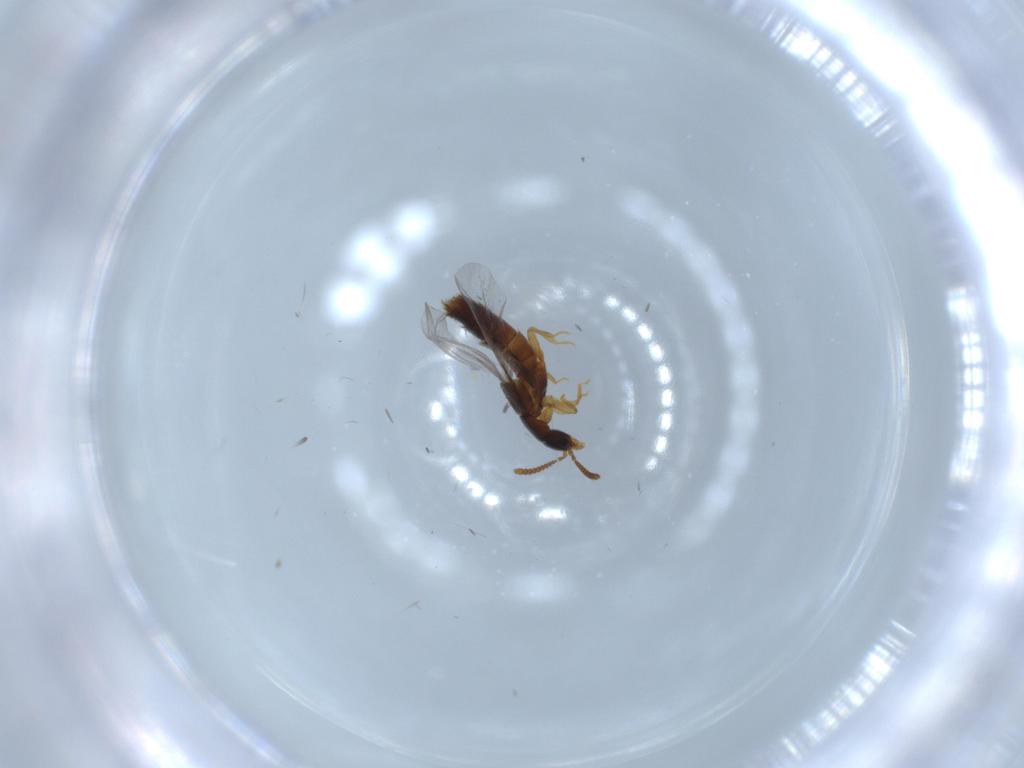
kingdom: Animalia
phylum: Arthropoda
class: Insecta
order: Coleoptera
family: Staphylinidae
